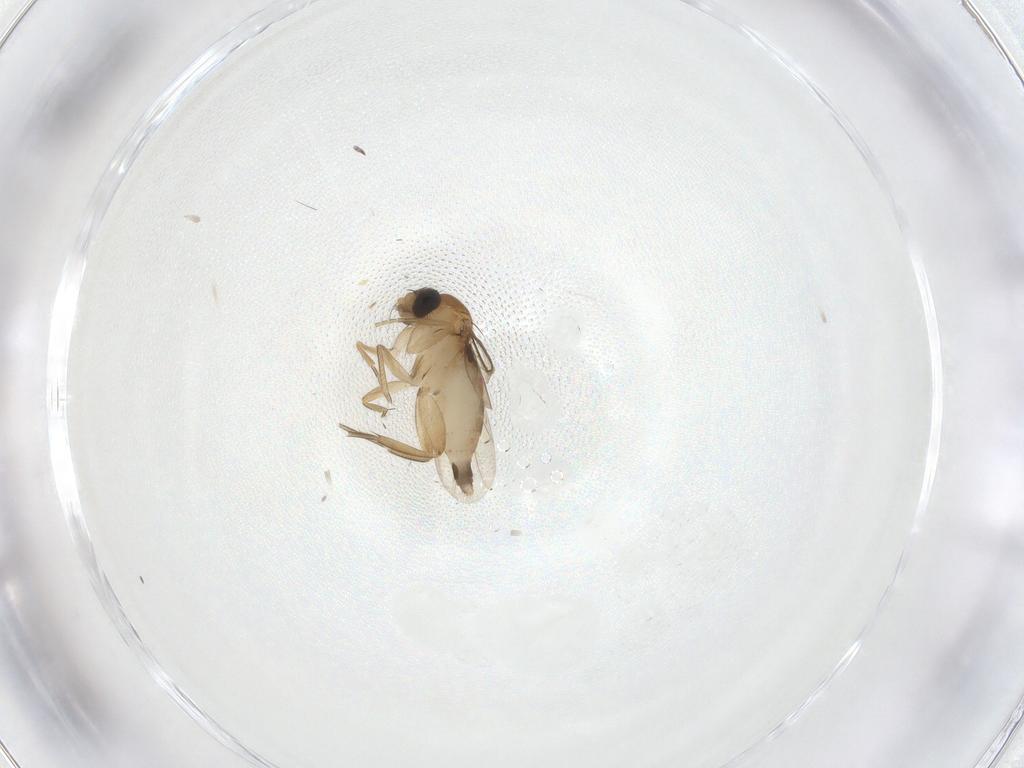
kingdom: Animalia
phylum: Arthropoda
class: Insecta
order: Diptera
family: Phoridae
